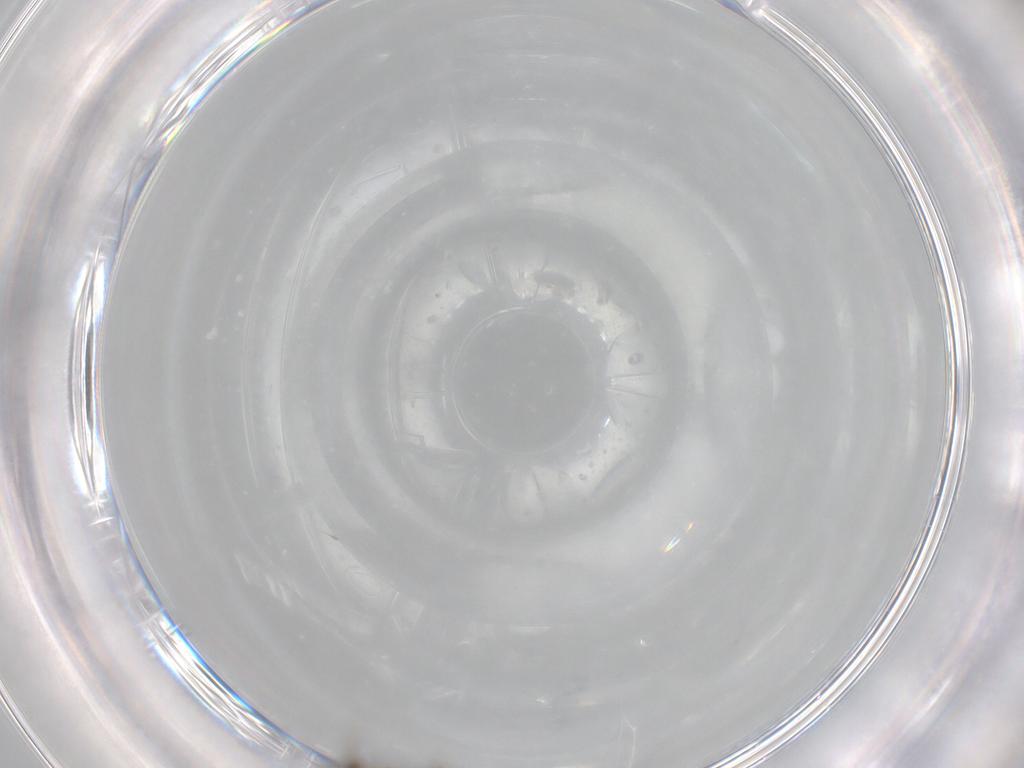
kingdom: Animalia
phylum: Arthropoda
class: Insecta
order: Diptera
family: Chironomidae
